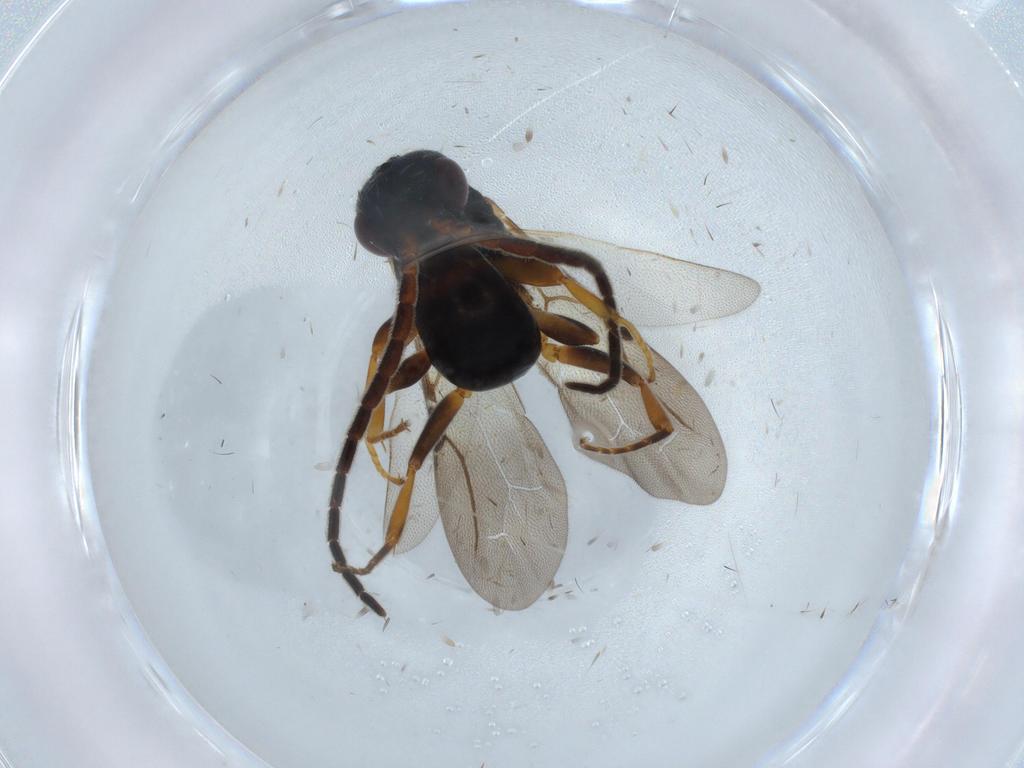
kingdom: Animalia
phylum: Arthropoda
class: Insecta
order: Hymenoptera
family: Bethylidae
